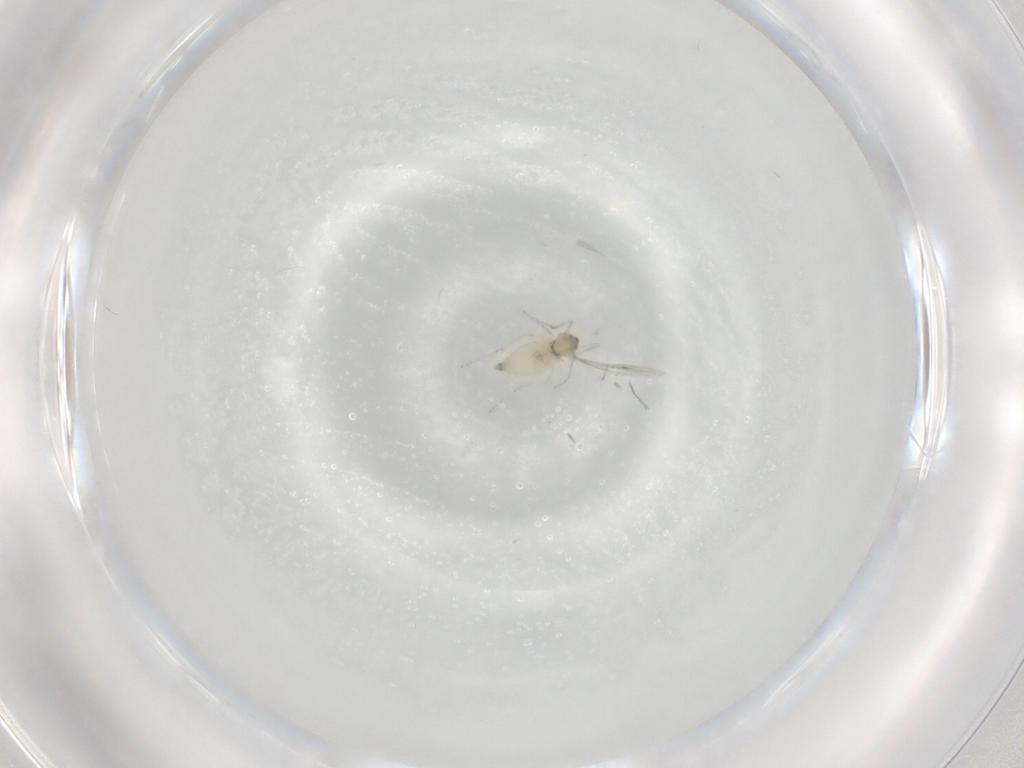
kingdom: Animalia
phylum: Arthropoda
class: Insecta
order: Diptera
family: Cecidomyiidae
